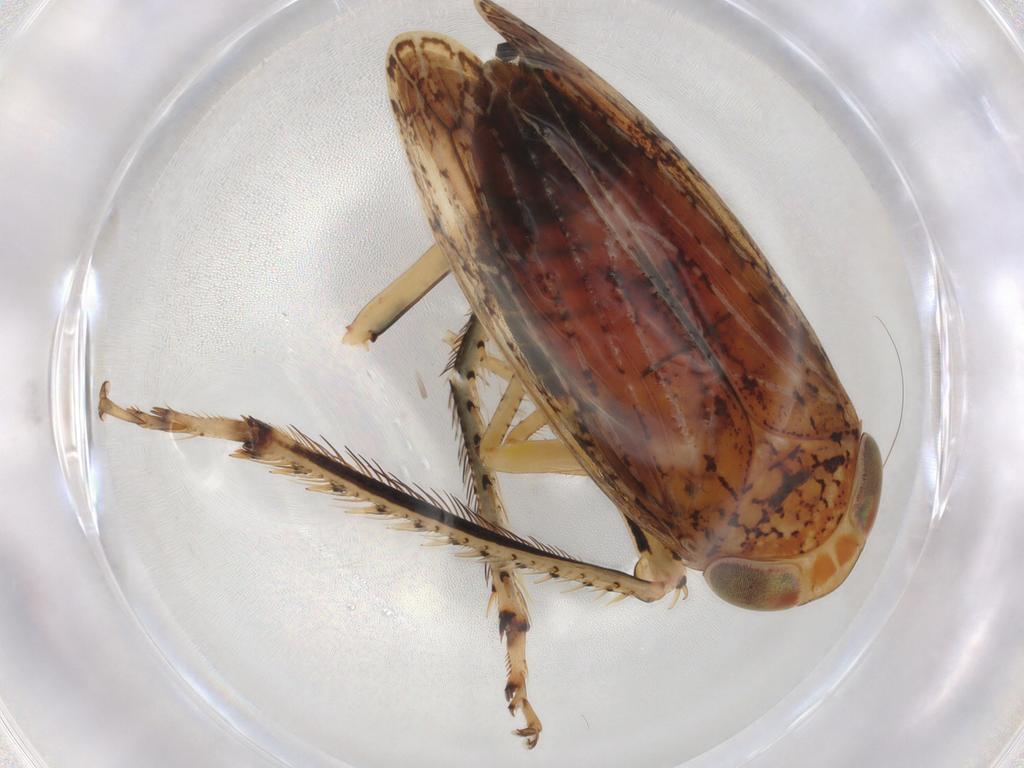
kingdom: Animalia
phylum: Arthropoda
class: Insecta
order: Hemiptera
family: Cicadellidae
